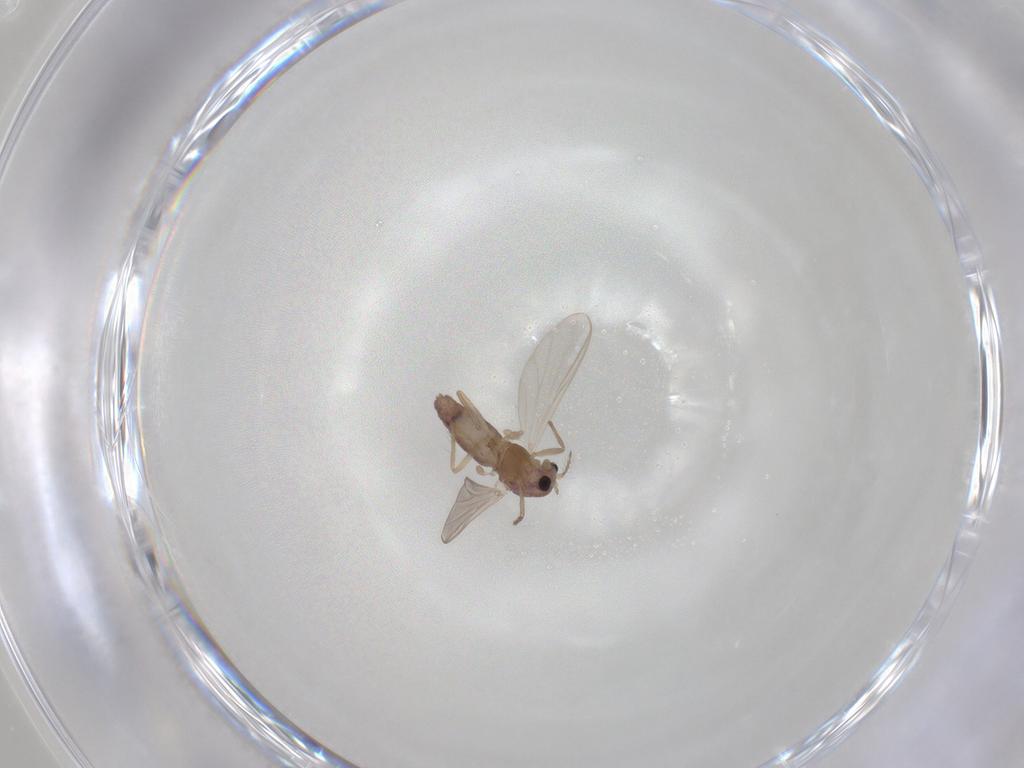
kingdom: Animalia
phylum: Arthropoda
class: Insecta
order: Diptera
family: Chironomidae
